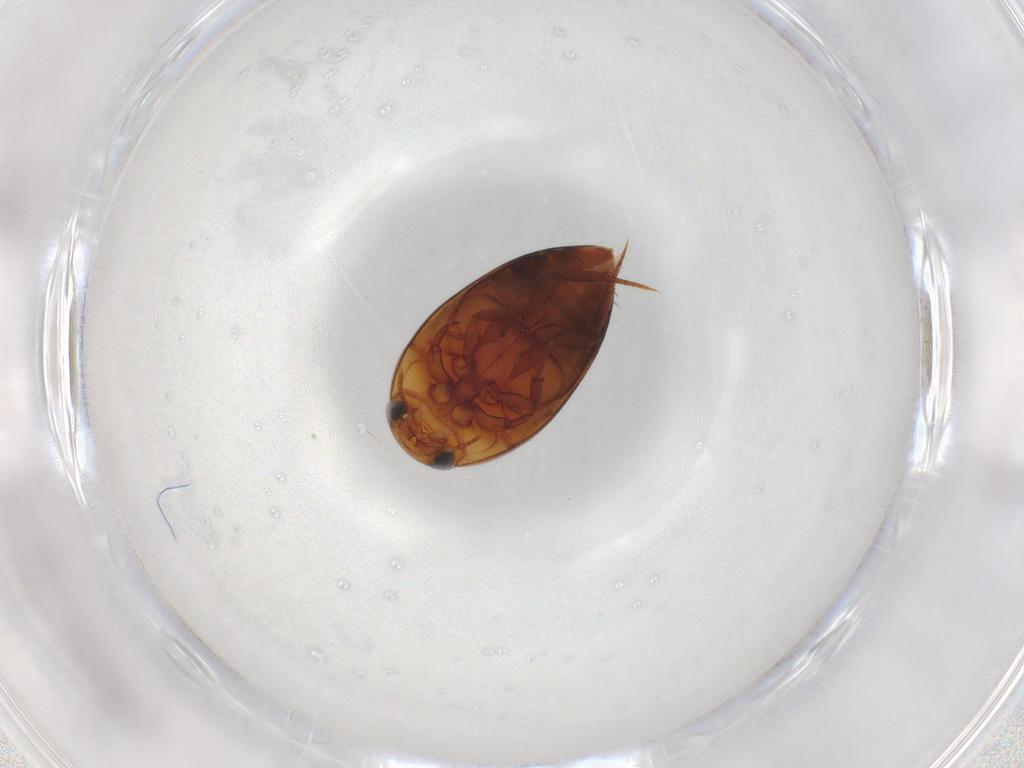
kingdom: Animalia
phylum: Arthropoda
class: Insecta
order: Coleoptera
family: Noteridae
